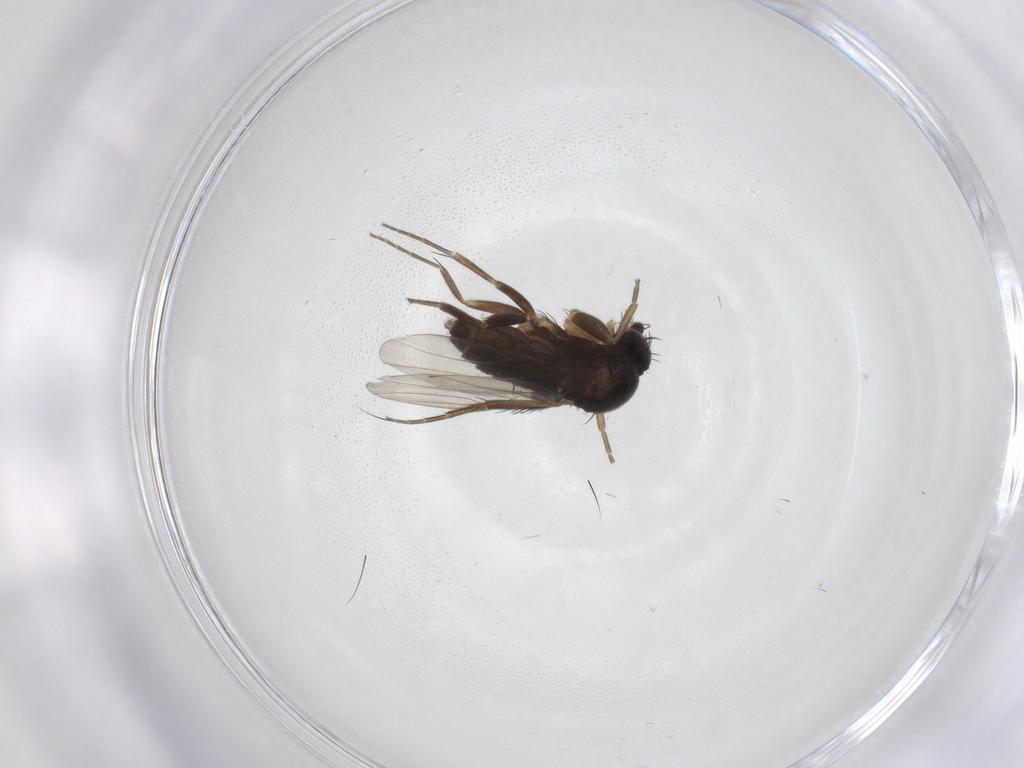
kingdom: Animalia
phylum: Arthropoda
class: Insecta
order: Diptera
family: Phoridae
